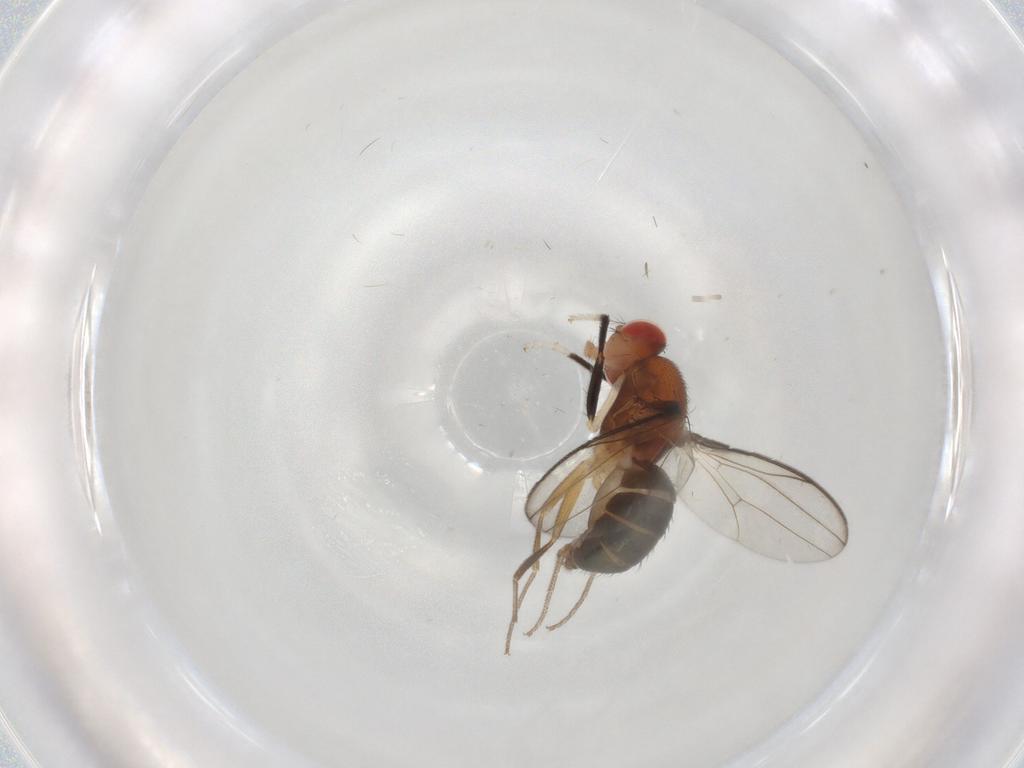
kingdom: Animalia
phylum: Arthropoda
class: Insecta
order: Diptera
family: Drosophilidae
